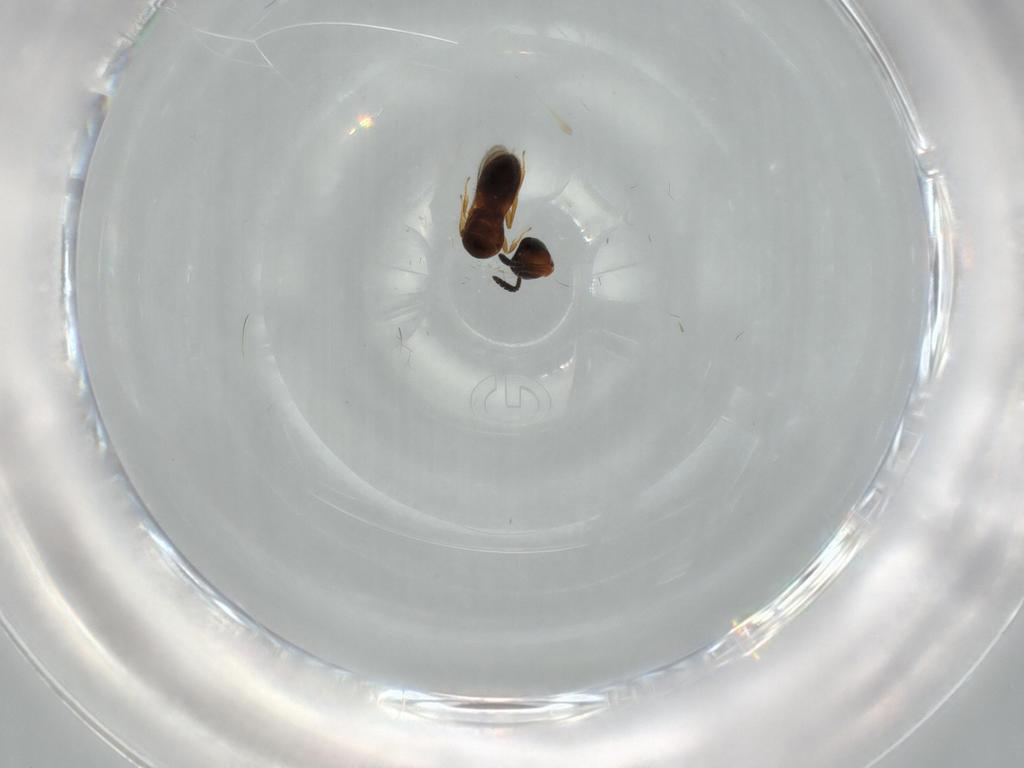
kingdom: Animalia
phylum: Arthropoda
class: Insecta
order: Hymenoptera
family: Scelionidae
